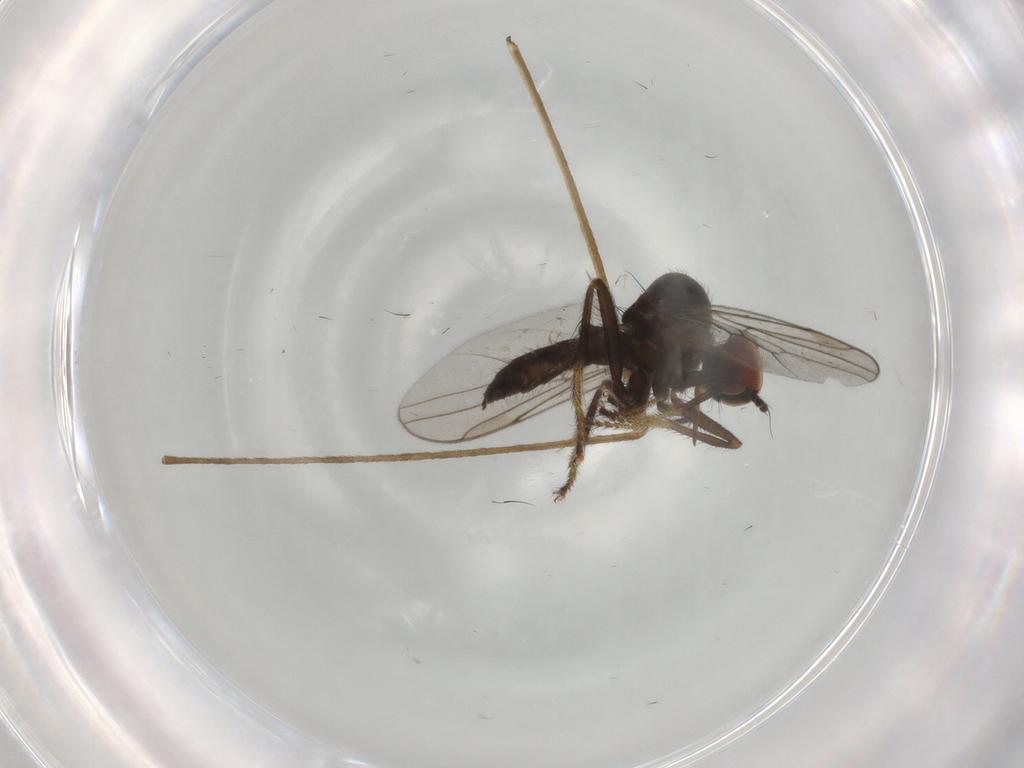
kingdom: Animalia
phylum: Arthropoda
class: Insecta
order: Diptera
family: Hybotidae
